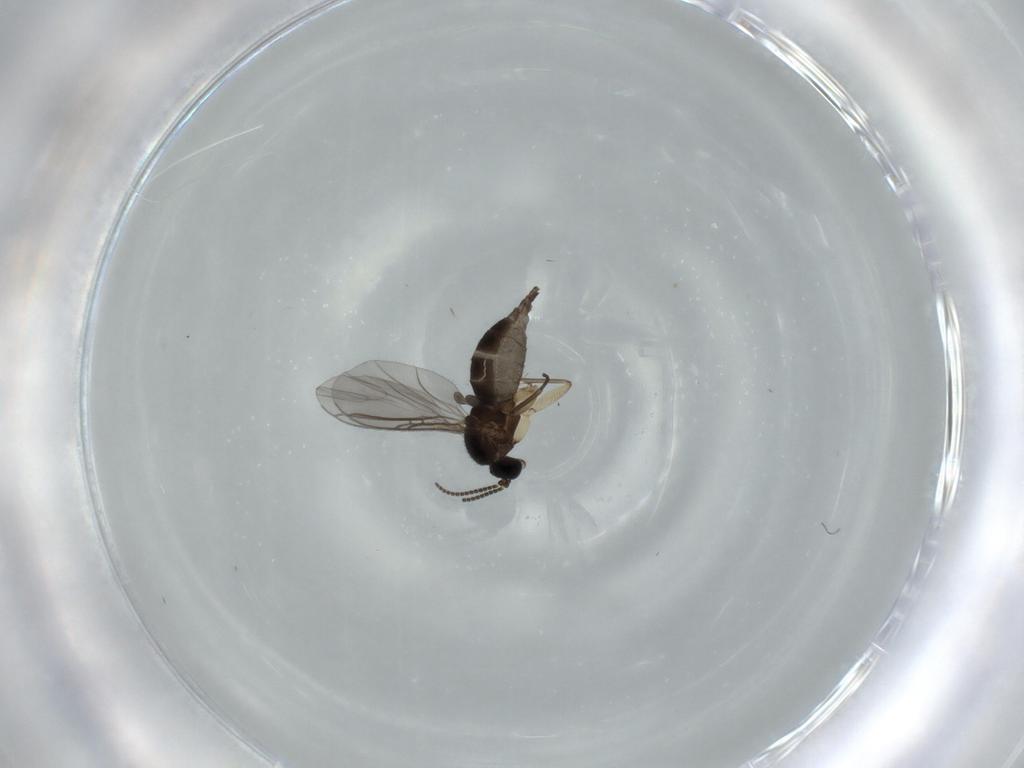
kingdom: Animalia
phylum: Arthropoda
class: Insecta
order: Diptera
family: Sciaridae
